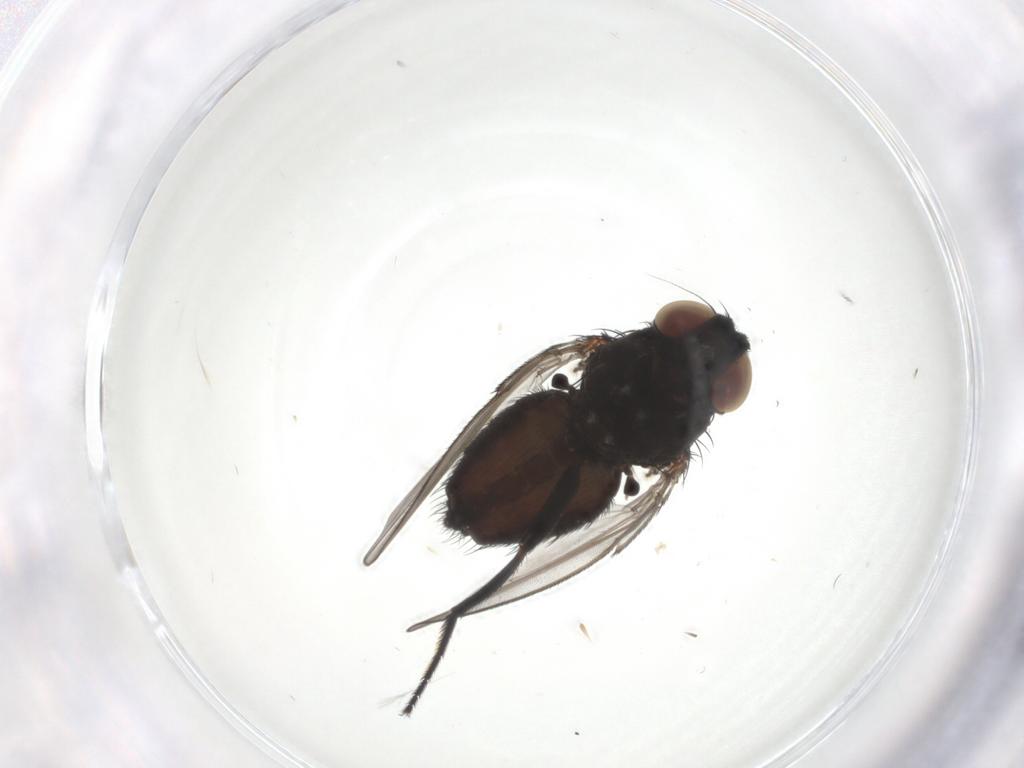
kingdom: Animalia
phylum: Arthropoda
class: Insecta
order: Diptera
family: Milichiidae
